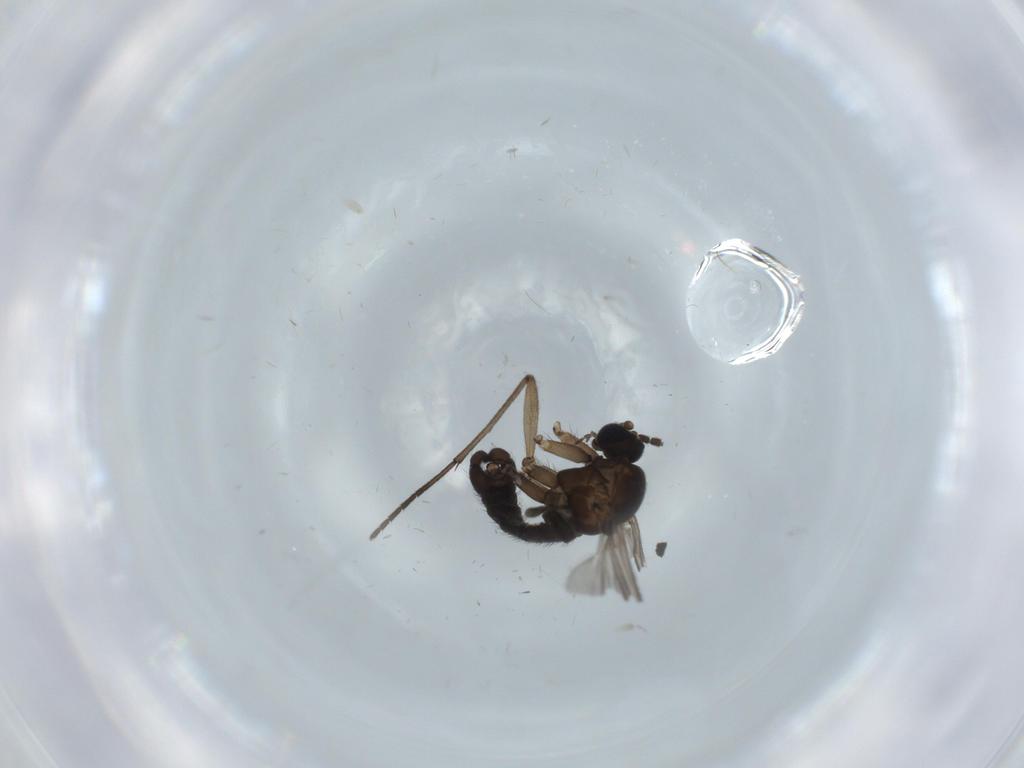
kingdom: Animalia
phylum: Arthropoda
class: Insecta
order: Diptera
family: Sciaridae
